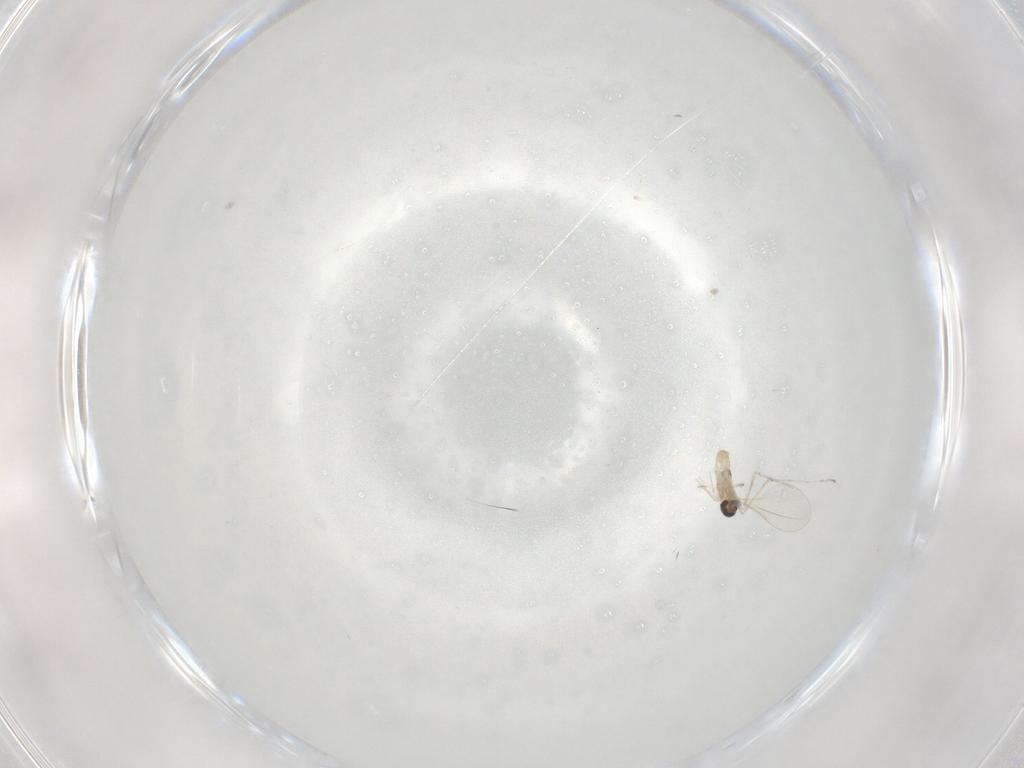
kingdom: Animalia
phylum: Arthropoda
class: Insecta
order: Diptera
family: Cecidomyiidae
